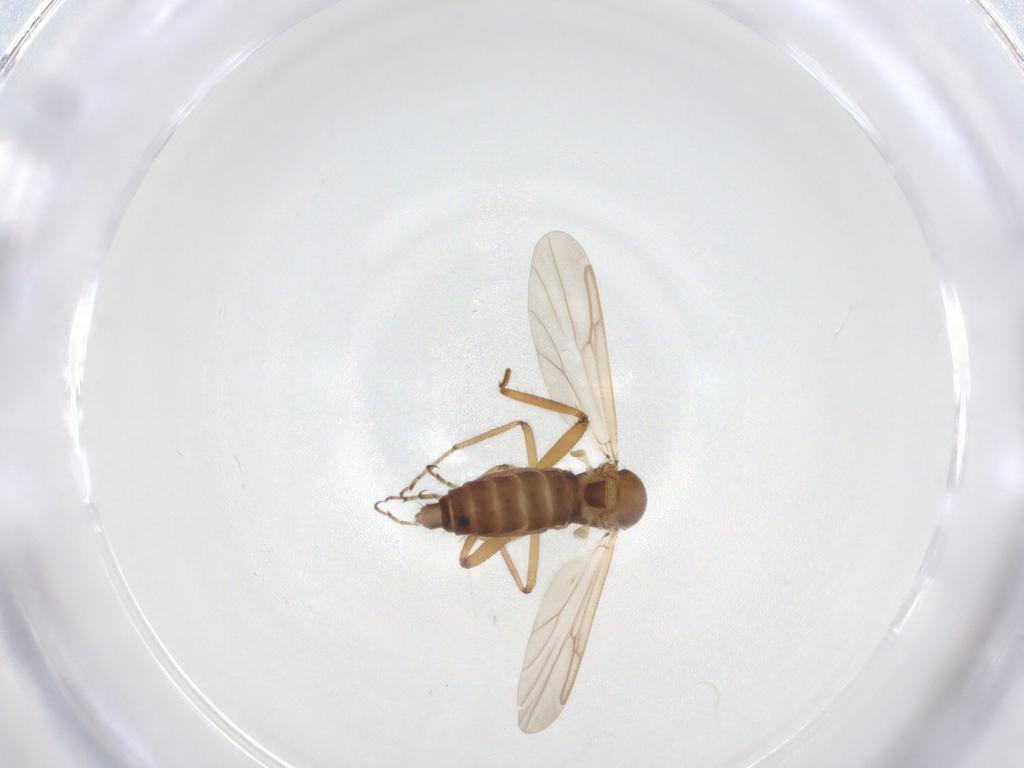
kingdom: Animalia
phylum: Arthropoda
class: Insecta
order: Diptera
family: Ceratopogonidae
